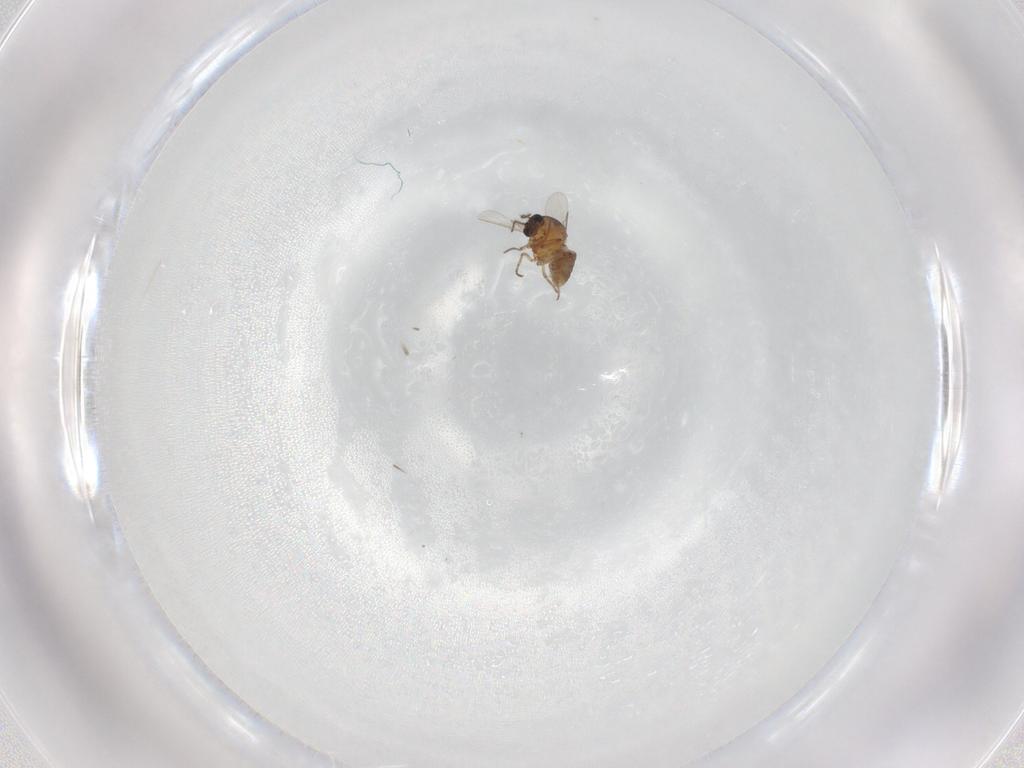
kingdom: Animalia
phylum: Arthropoda
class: Insecta
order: Diptera
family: Ceratopogonidae
